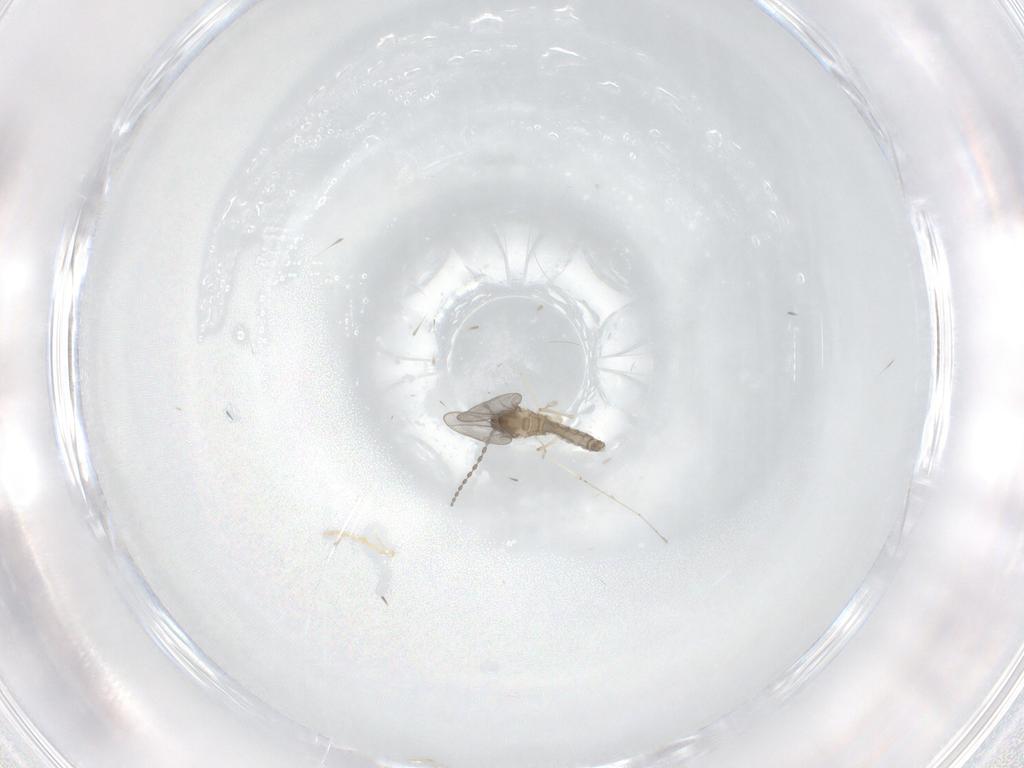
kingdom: Animalia
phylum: Arthropoda
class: Insecta
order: Diptera
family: Cecidomyiidae
